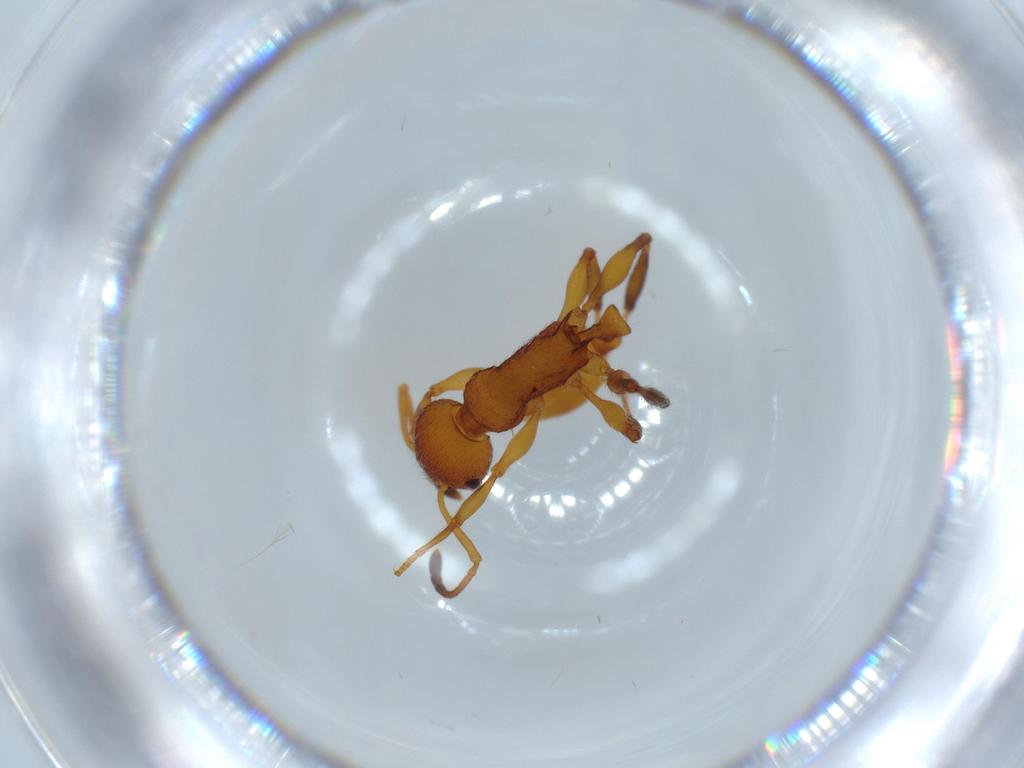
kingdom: Animalia
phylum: Arthropoda
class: Insecta
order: Hymenoptera
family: Formicidae
